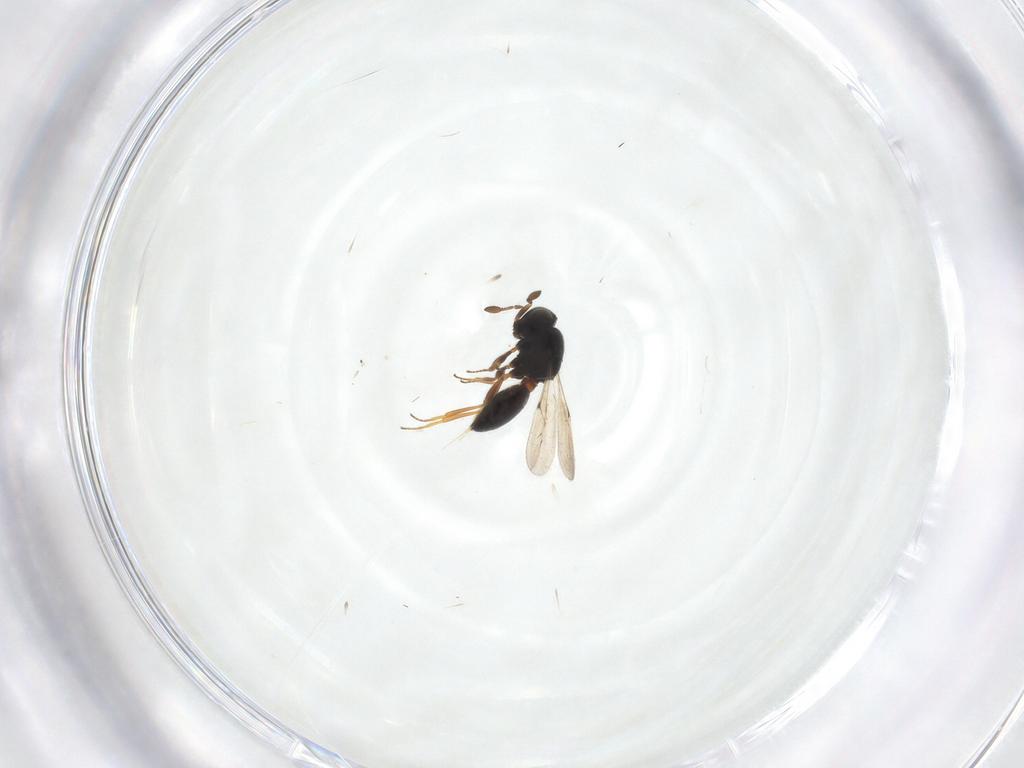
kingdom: Animalia
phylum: Arthropoda
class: Insecta
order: Hymenoptera
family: Scelionidae
